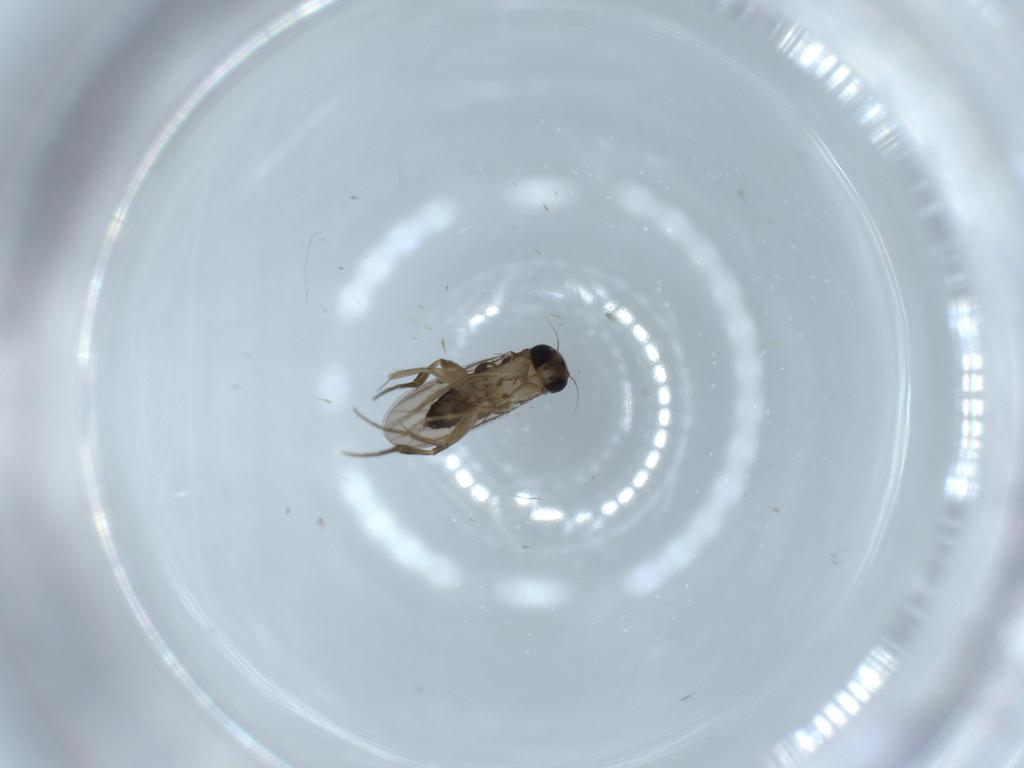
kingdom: Animalia
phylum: Arthropoda
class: Insecta
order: Diptera
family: Phoridae
